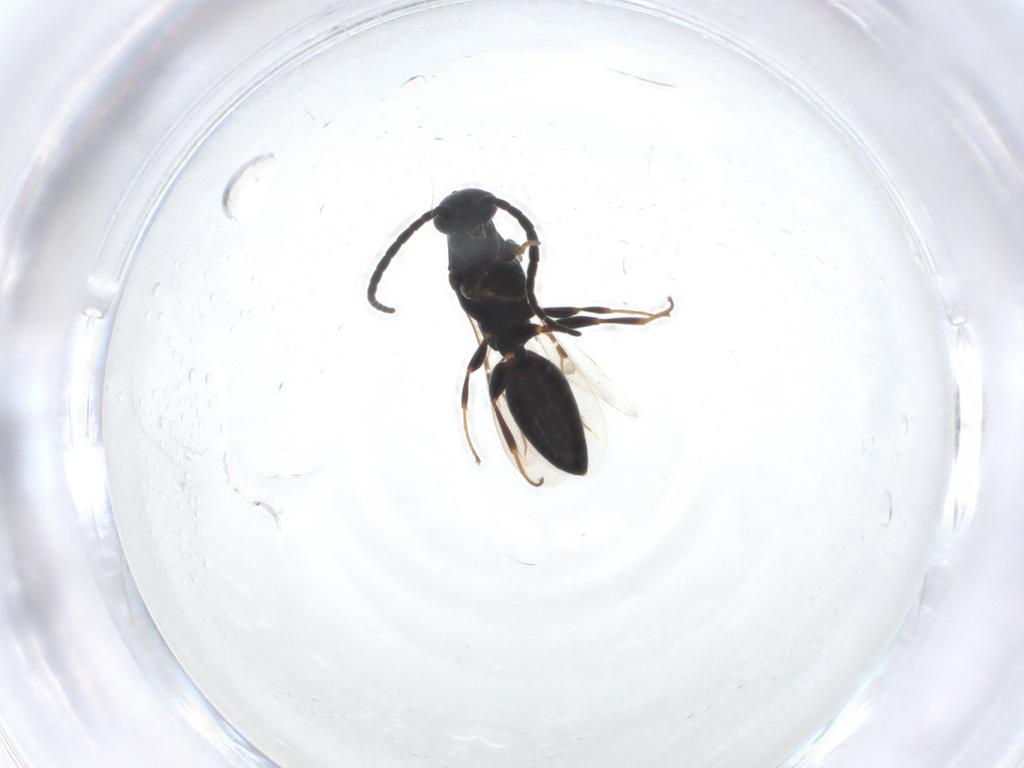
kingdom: Animalia
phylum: Arthropoda
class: Insecta
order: Hymenoptera
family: Bethylidae
